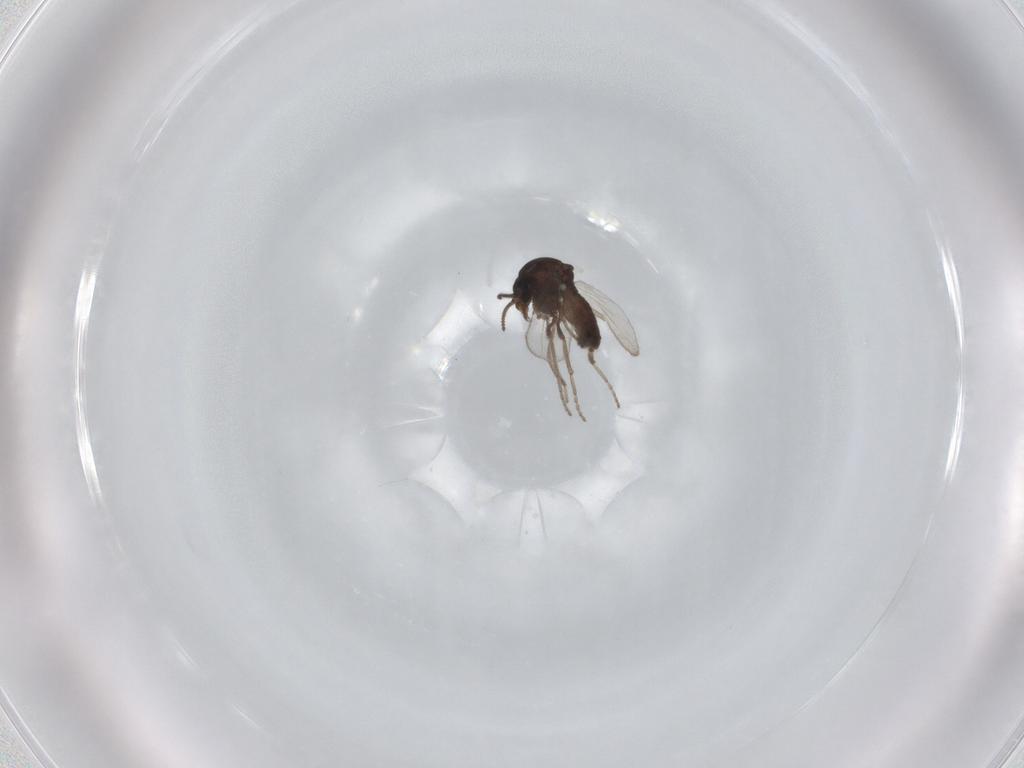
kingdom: Animalia
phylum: Arthropoda
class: Insecta
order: Diptera
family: Ceratopogonidae
